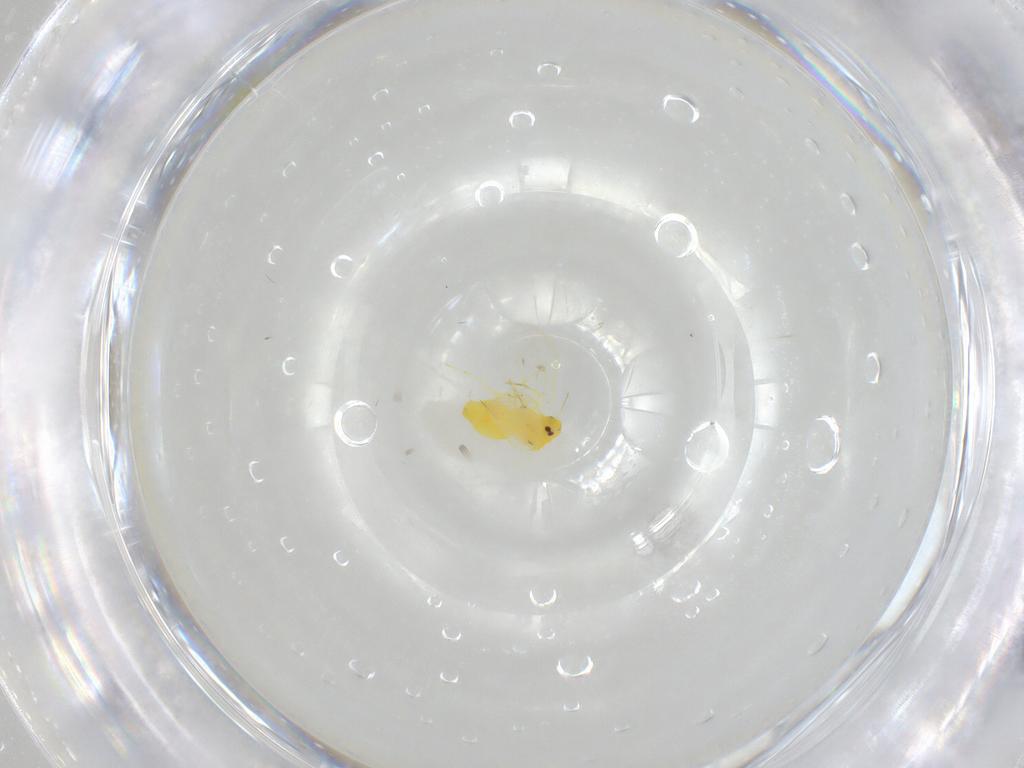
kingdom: Animalia
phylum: Arthropoda
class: Insecta
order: Hemiptera
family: Aleyrodidae
